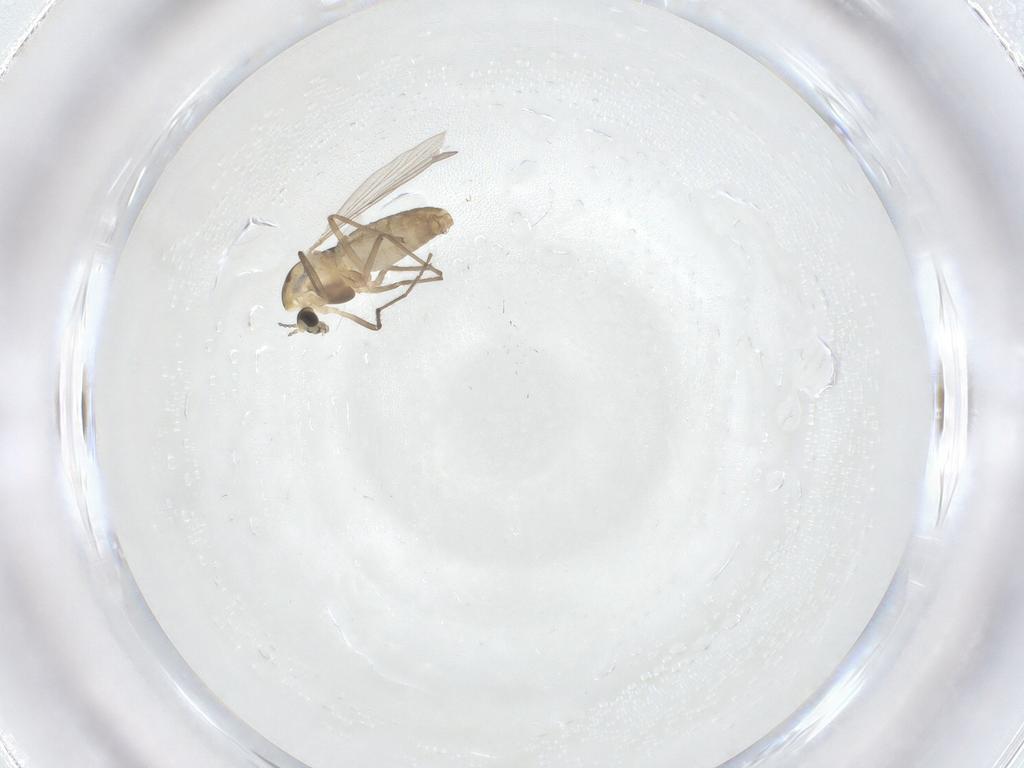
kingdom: Animalia
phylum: Arthropoda
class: Insecta
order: Diptera
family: Chironomidae
